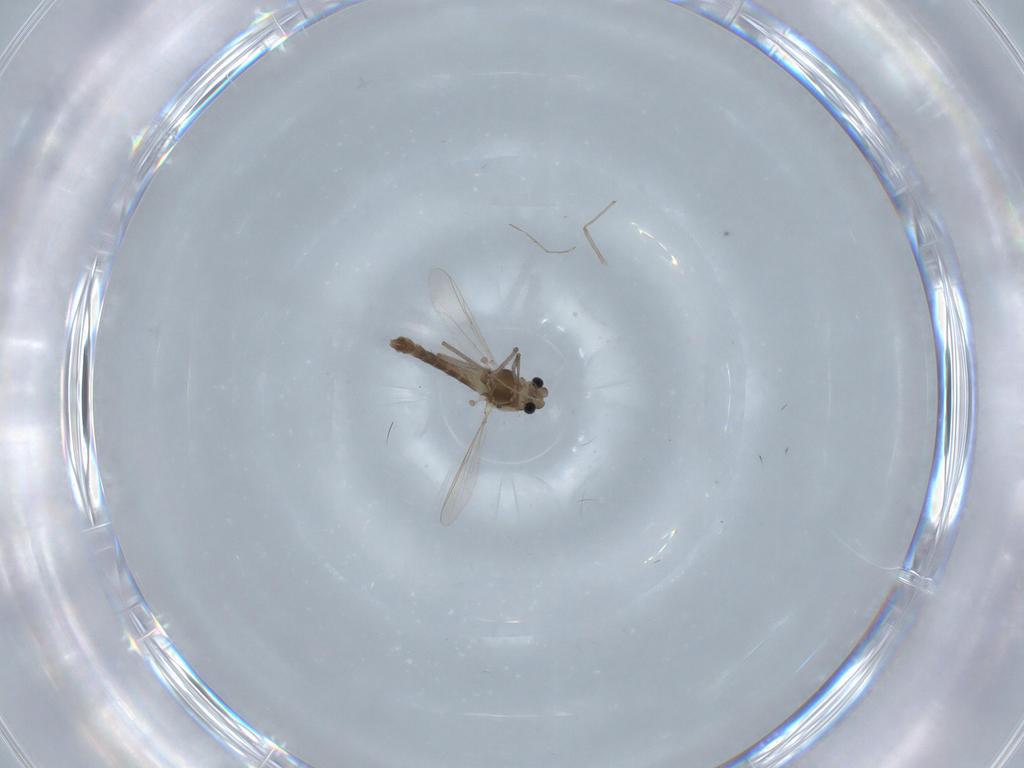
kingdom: Animalia
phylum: Arthropoda
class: Insecta
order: Diptera
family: Chironomidae
